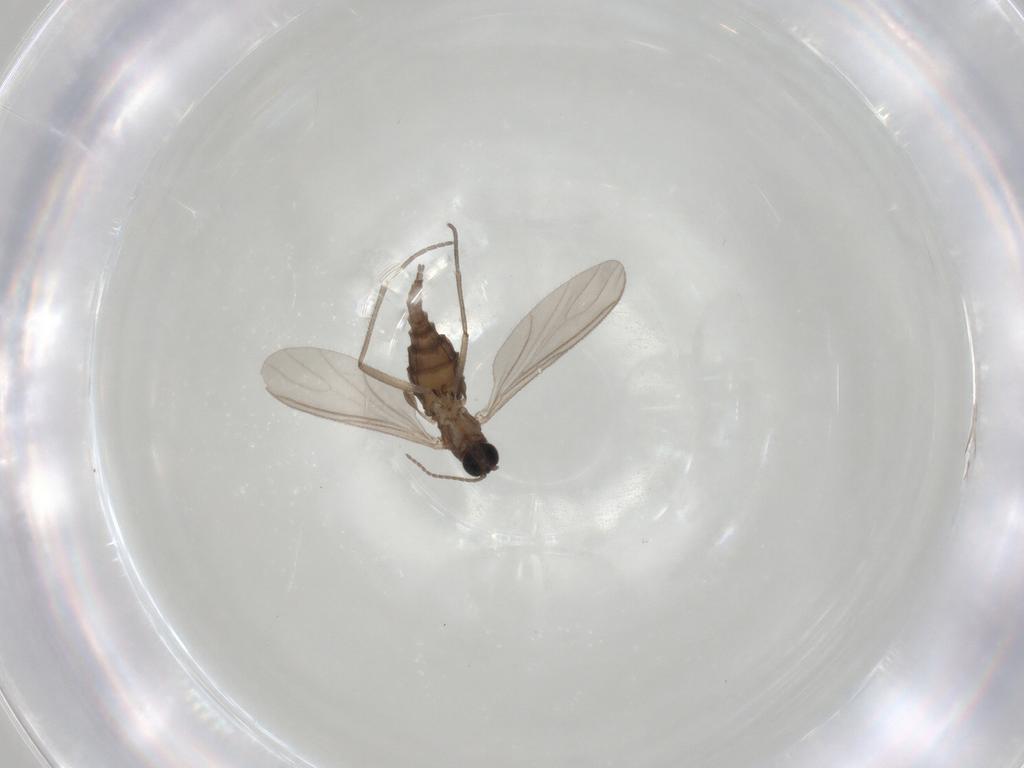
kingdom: Animalia
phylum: Arthropoda
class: Insecta
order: Diptera
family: Sciaridae
